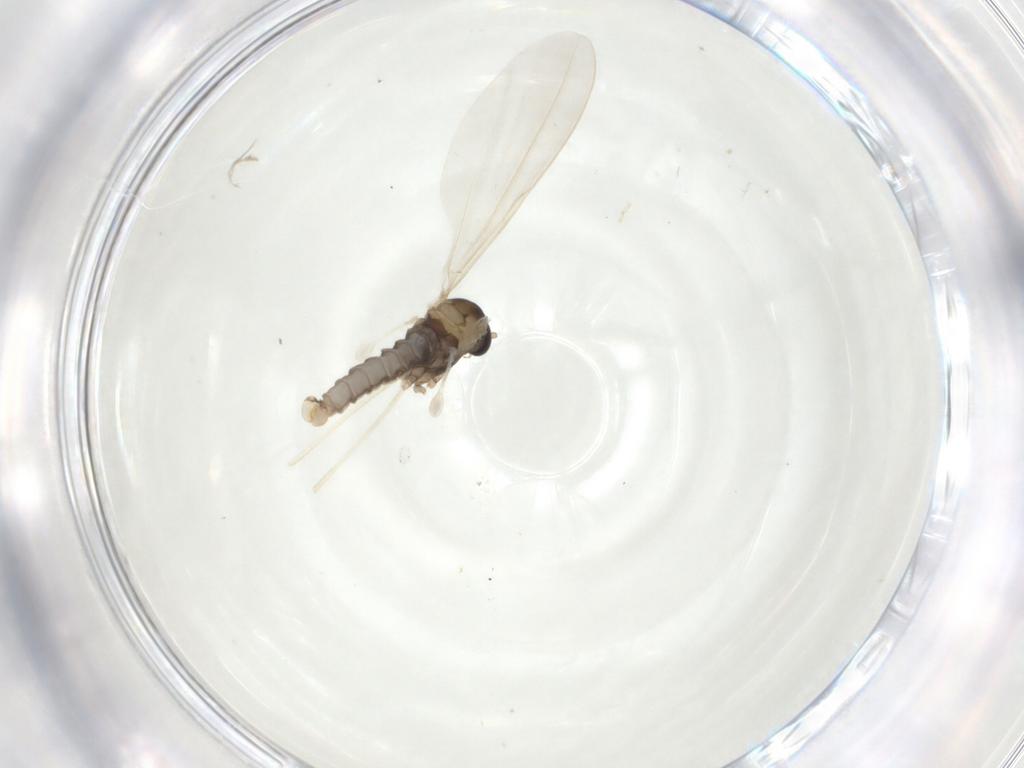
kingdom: Animalia
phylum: Arthropoda
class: Insecta
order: Diptera
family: Cecidomyiidae
